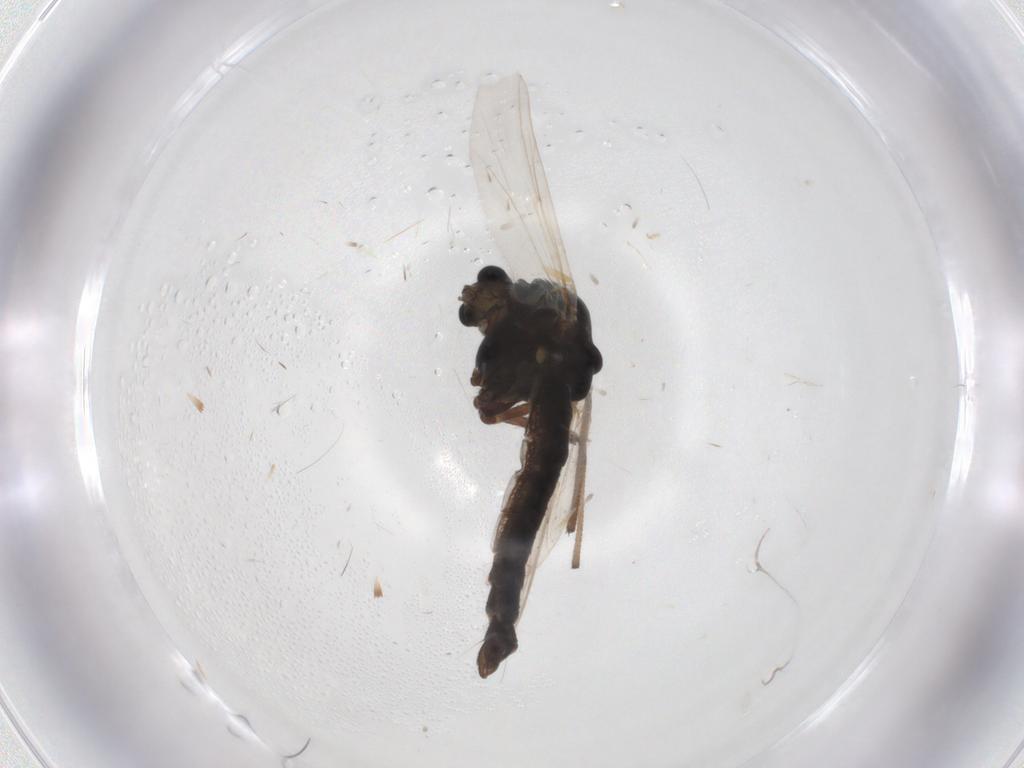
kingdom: Animalia
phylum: Arthropoda
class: Insecta
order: Diptera
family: Chironomidae
